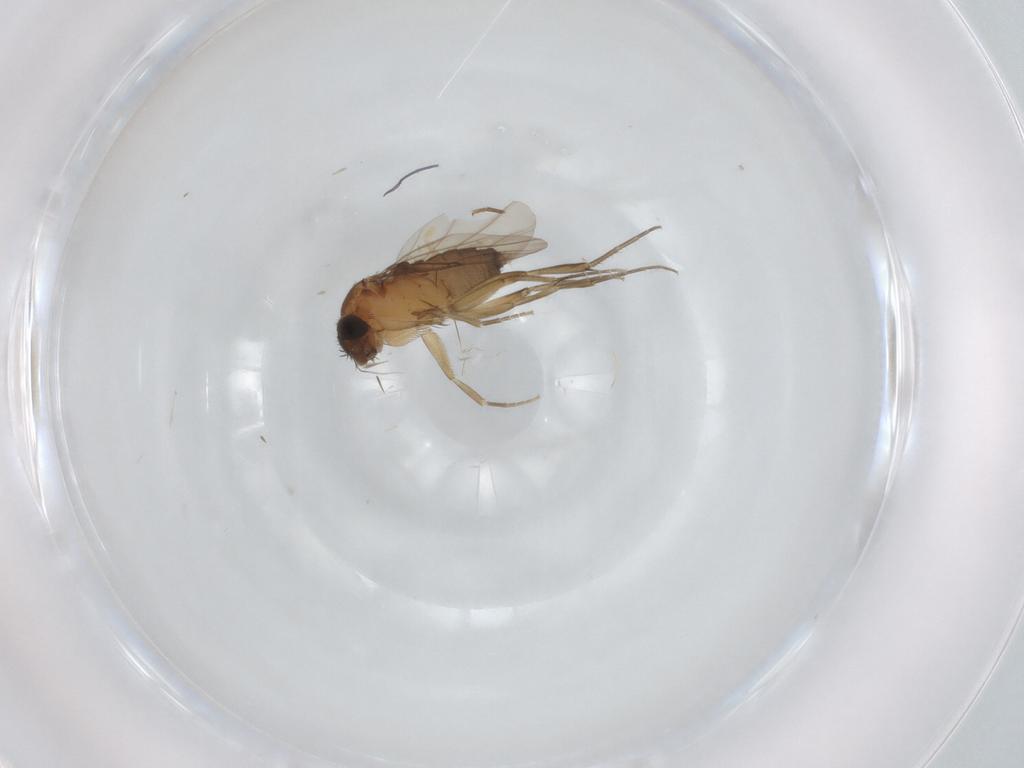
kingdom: Animalia
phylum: Arthropoda
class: Insecta
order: Diptera
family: Phoridae
